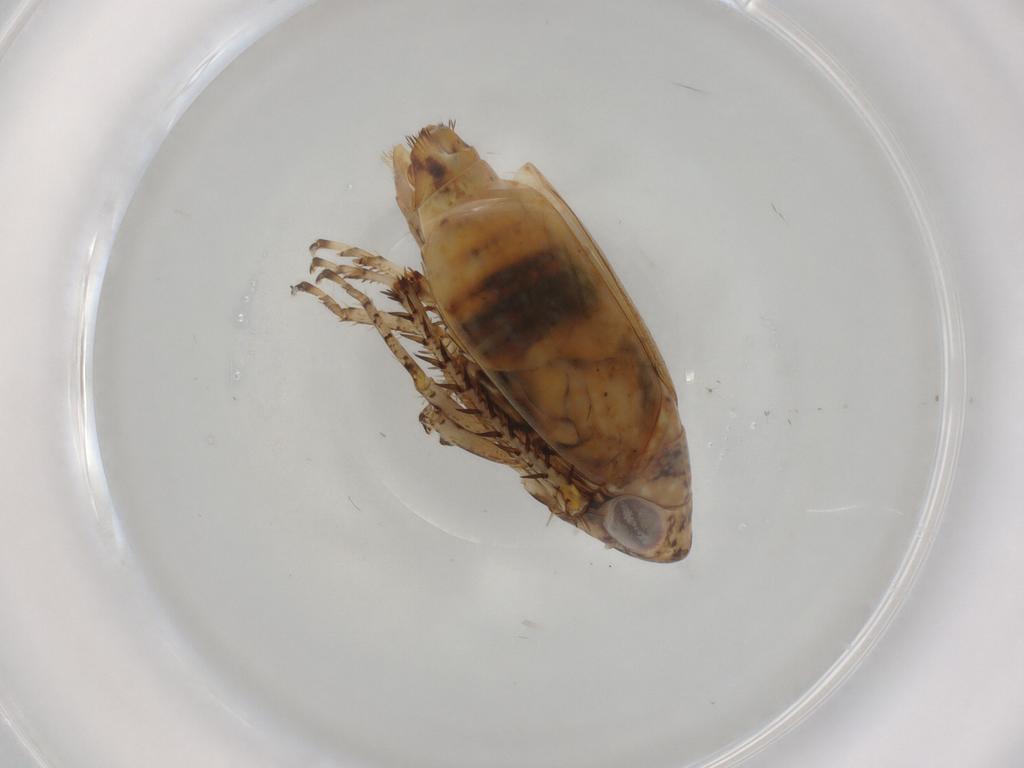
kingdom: Animalia
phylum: Arthropoda
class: Insecta
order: Hemiptera
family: Cicadellidae
